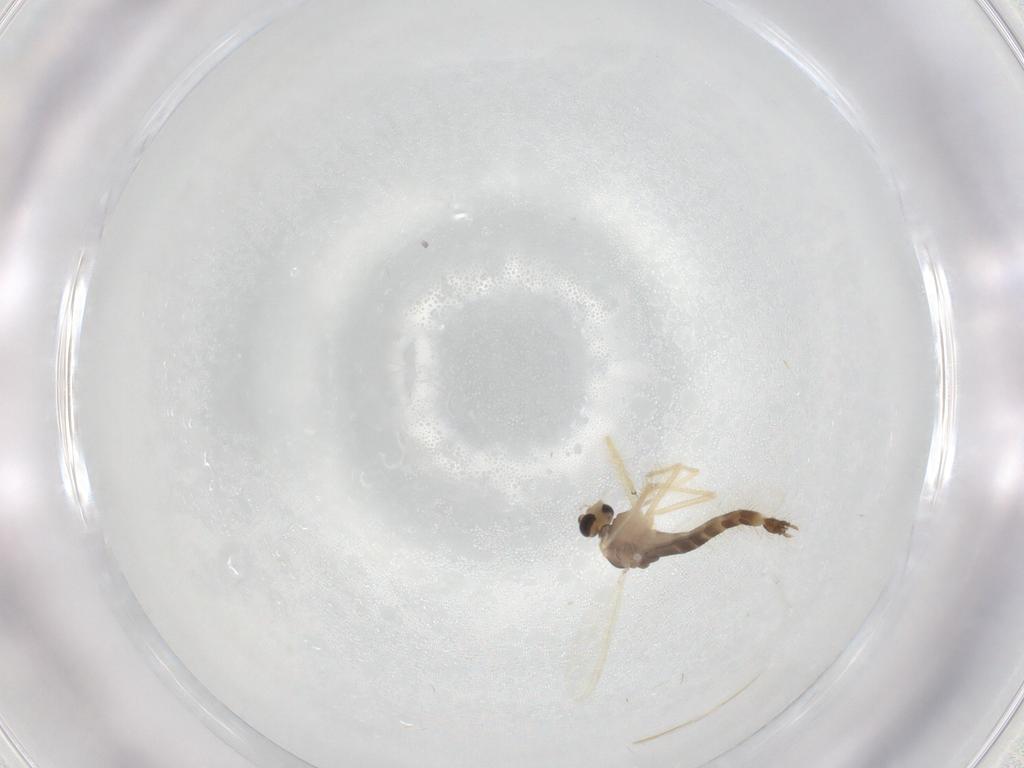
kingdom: Animalia
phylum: Arthropoda
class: Insecta
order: Diptera
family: Chironomidae
